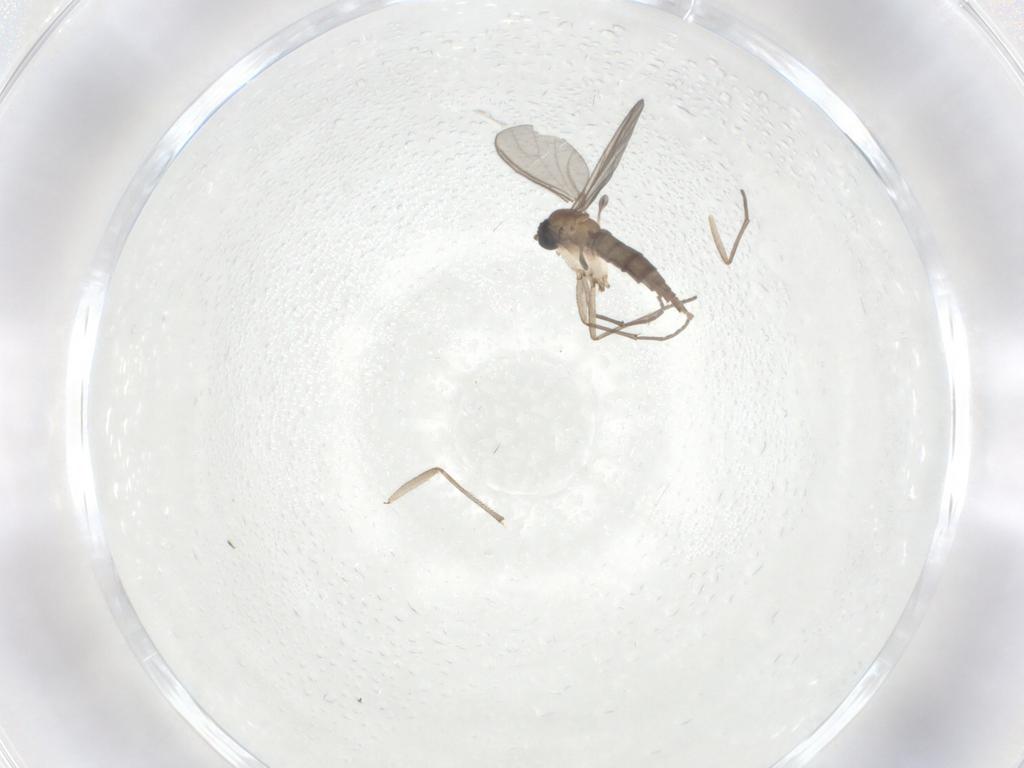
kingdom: Animalia
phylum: Arthropoda
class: Insecta
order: Diptera
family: Sciaridae
